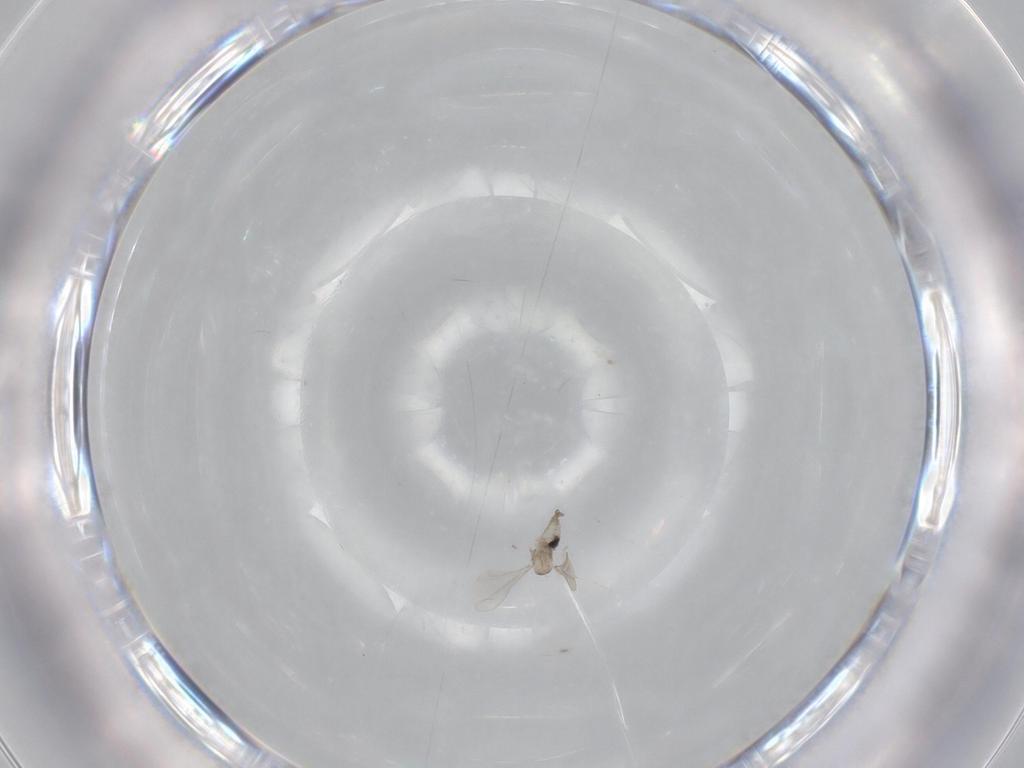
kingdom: Animalia
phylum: Arthropoda
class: Insecta
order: Diptera
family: Cecidomyiidae
